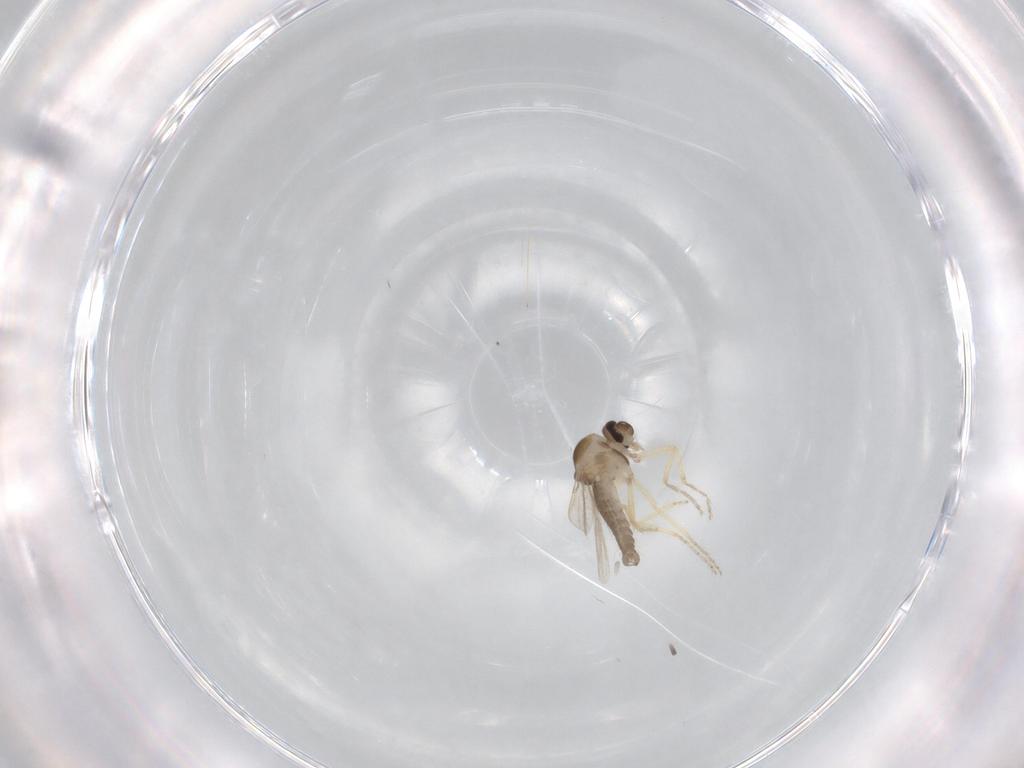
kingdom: Animalia
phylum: Arthropoda
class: Insecta
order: Diptera
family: Ceratopogonidae
